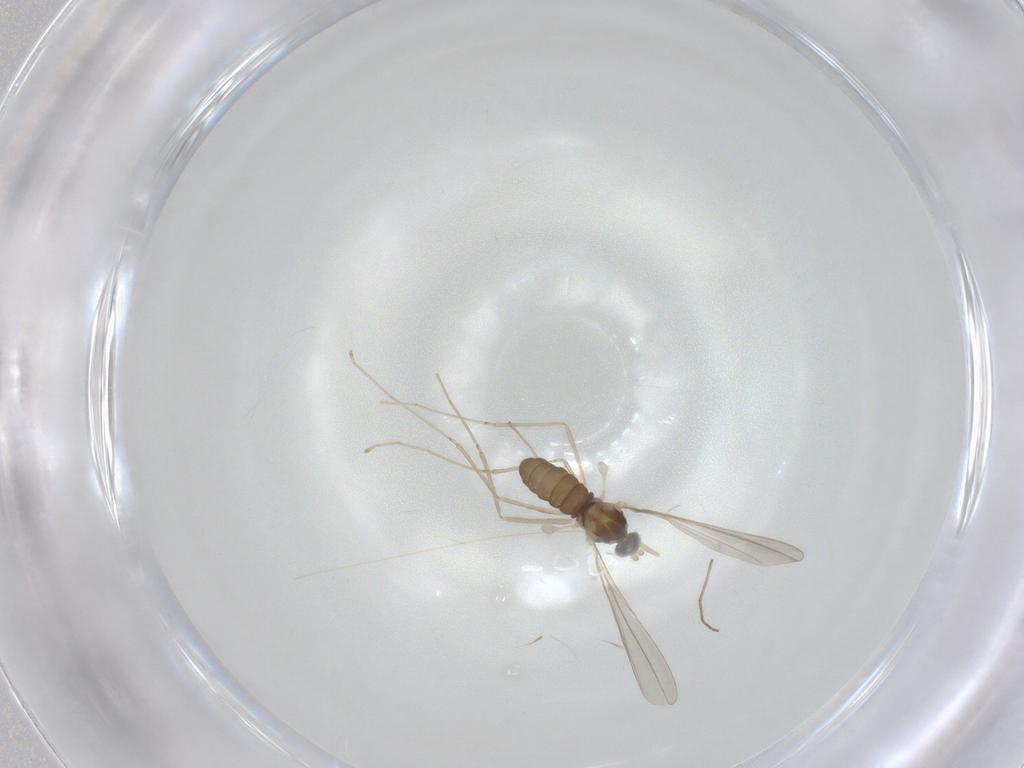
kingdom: Animalia
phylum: Arthropoda
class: Insecta
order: Diptera
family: Cecidomyiidae
